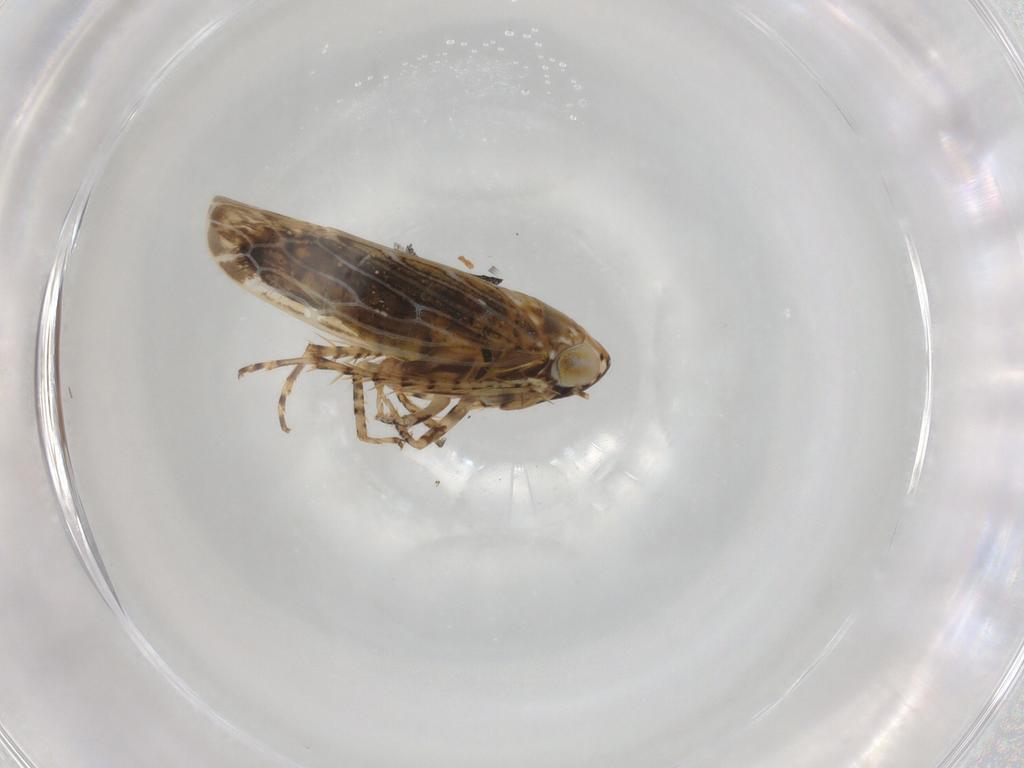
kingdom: Animalia
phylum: Arthropoda
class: Insecta
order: Hemiptera
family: Cicadellidae
